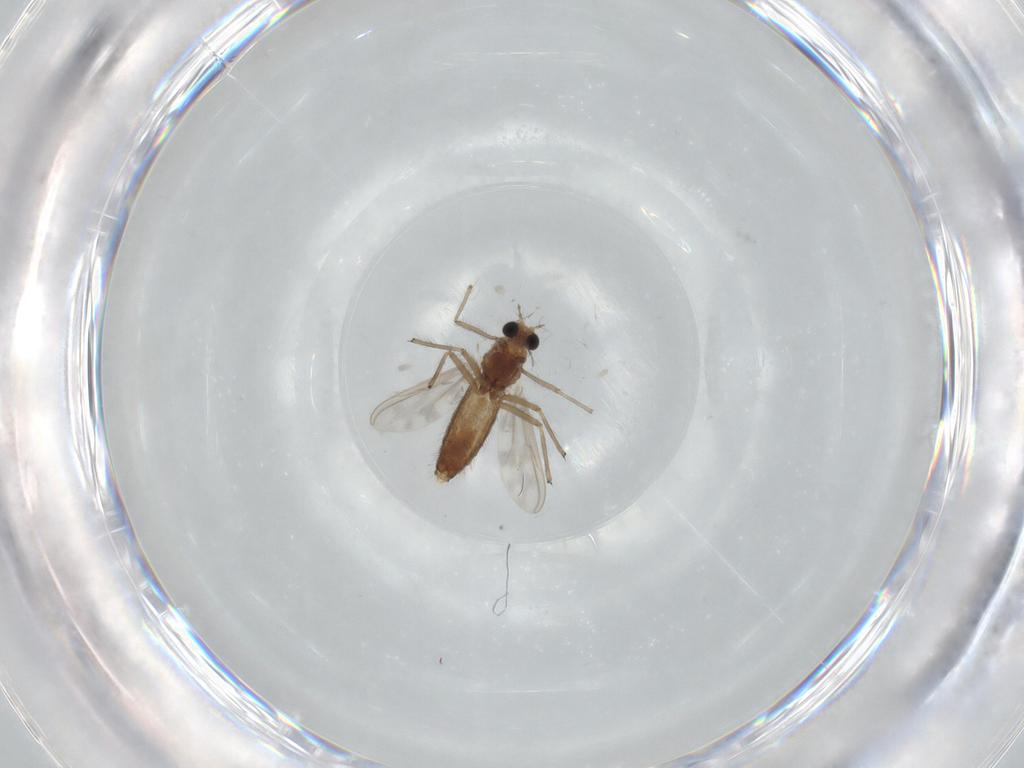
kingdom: Animalia
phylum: Arthropoda
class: Insecta
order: Diptera
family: Chironomidae
